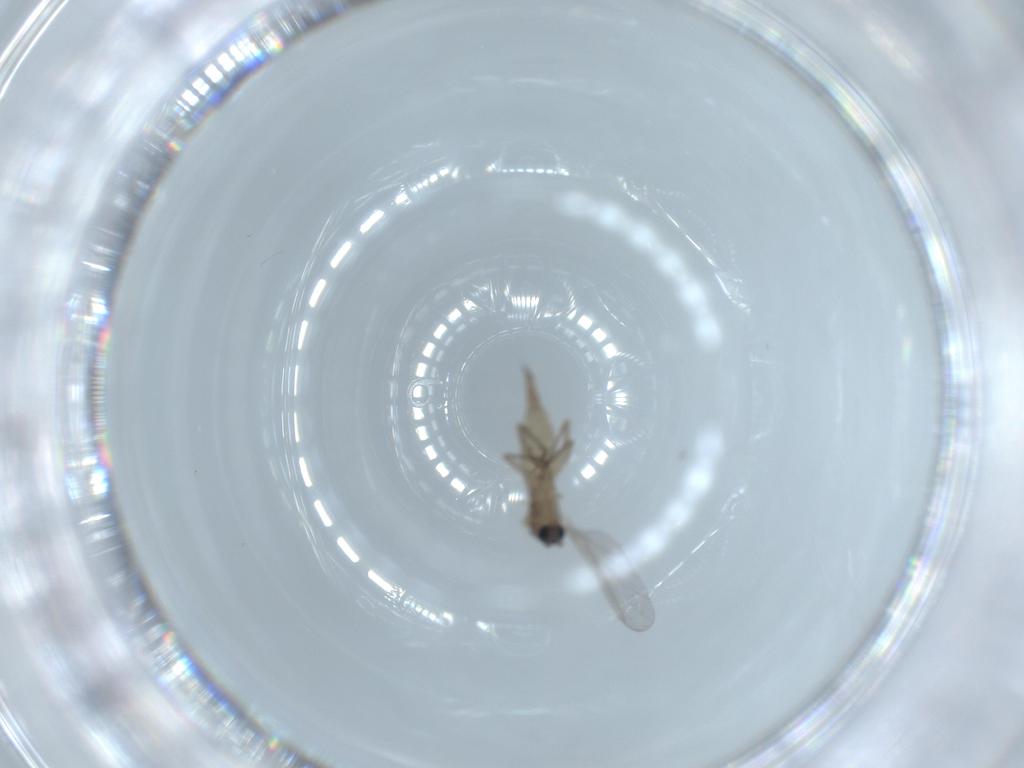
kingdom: Animalia
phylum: Arthropoda
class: Insecta
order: Diptera
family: Sciaridae
